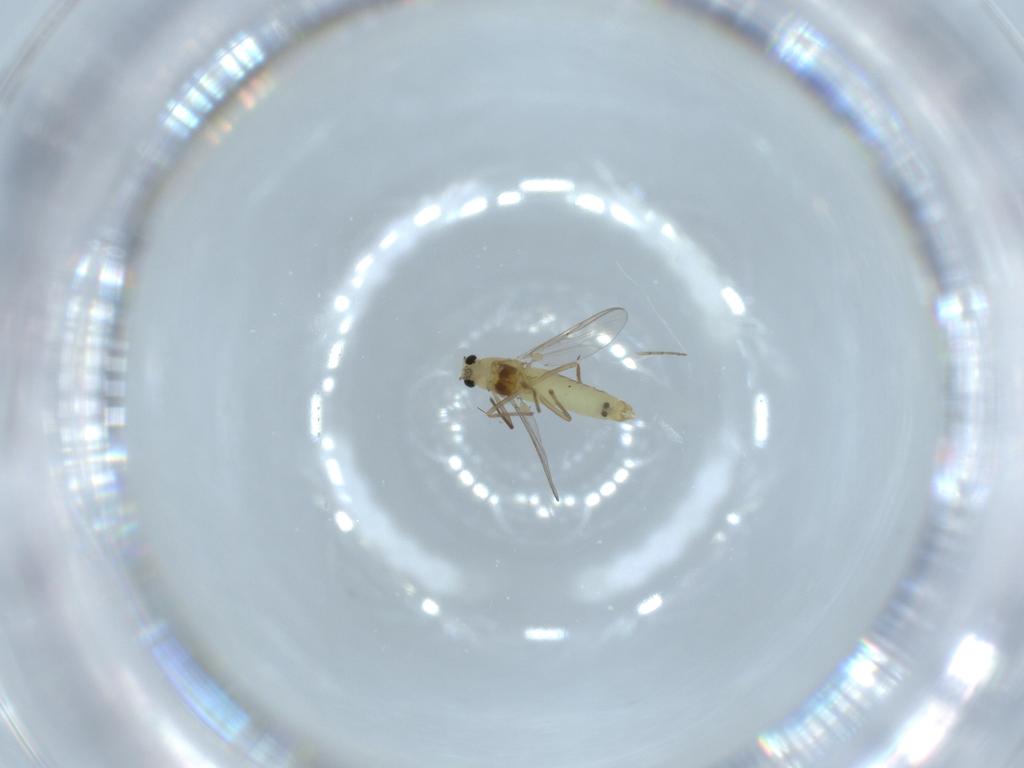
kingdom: Animalia
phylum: Arthropoda
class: Insecta
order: Diptera
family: Chironomidae
